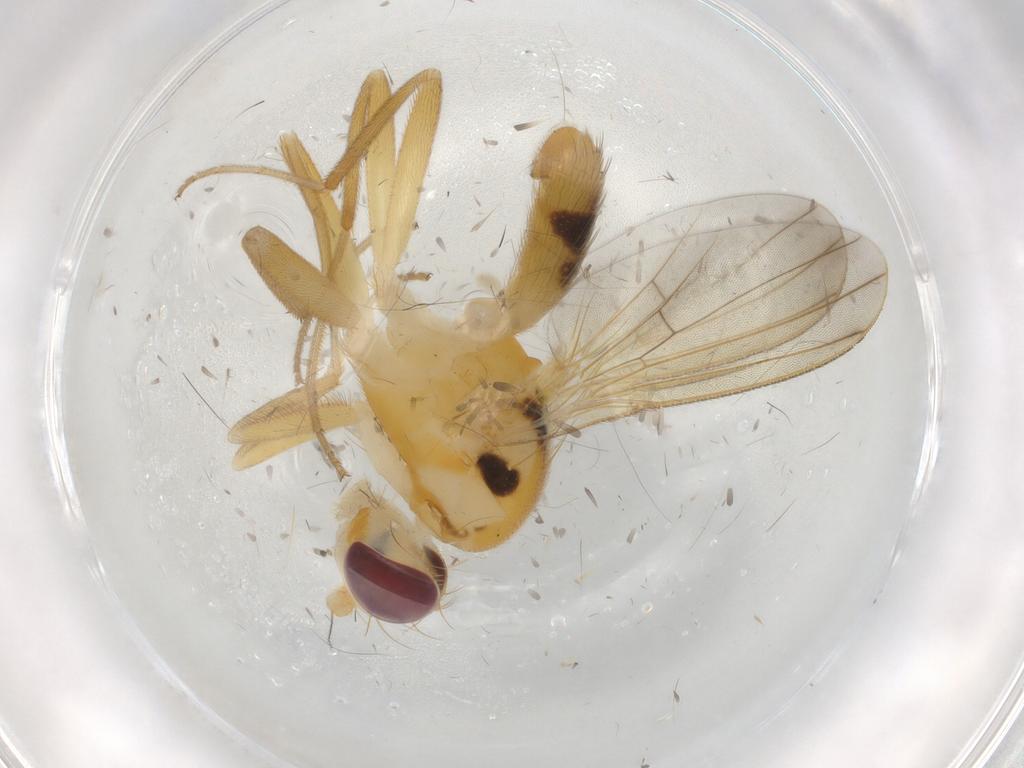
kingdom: Animalia
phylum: Arthropoda
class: Insecta
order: Diptera
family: Clusiidae
